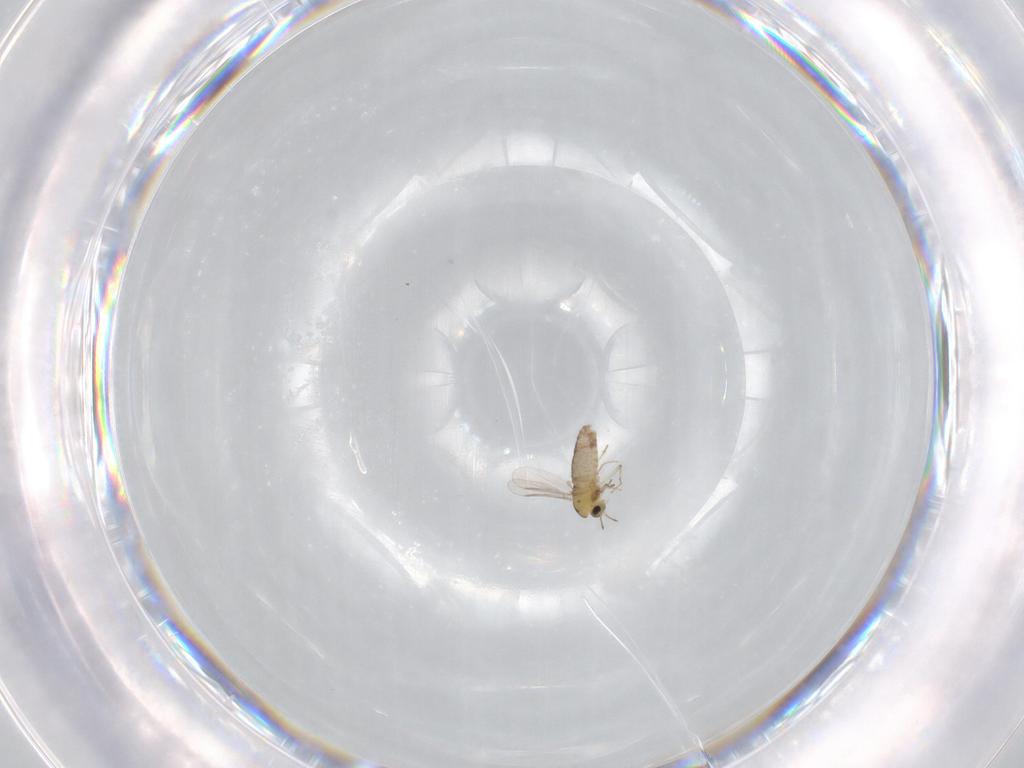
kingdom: Animalia
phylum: Arthropoda
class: Insecta
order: Diptera
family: Chironomidae
